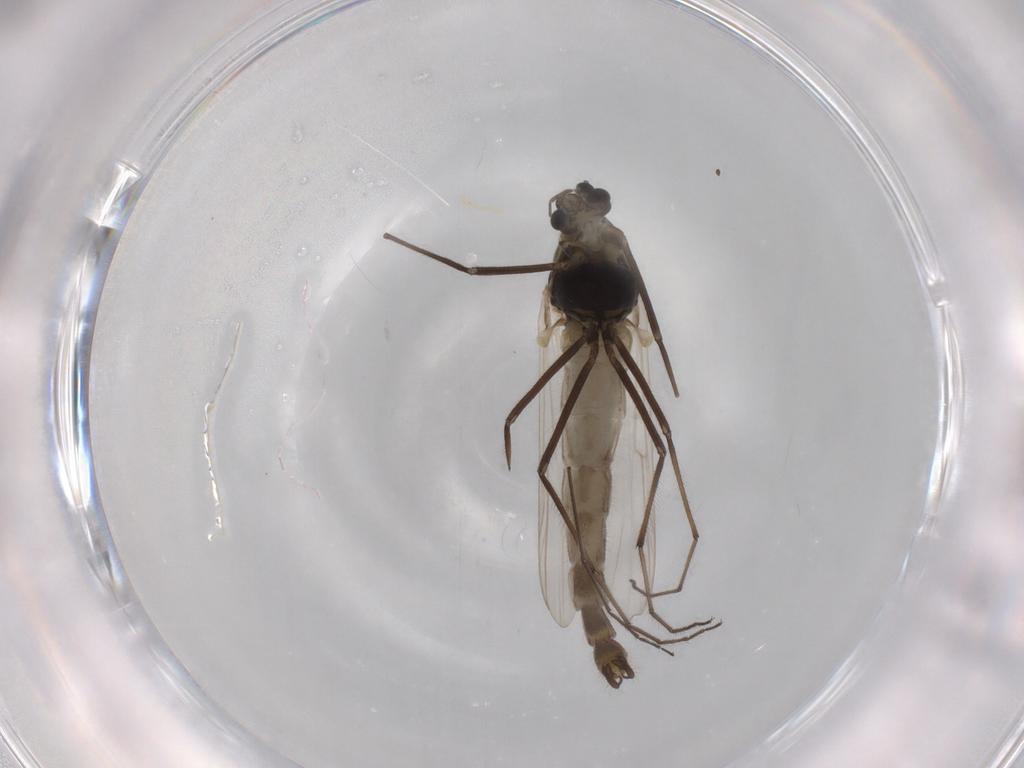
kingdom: Animalia
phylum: Arthropoda
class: Insecta
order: Diptera
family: Chironomidae
